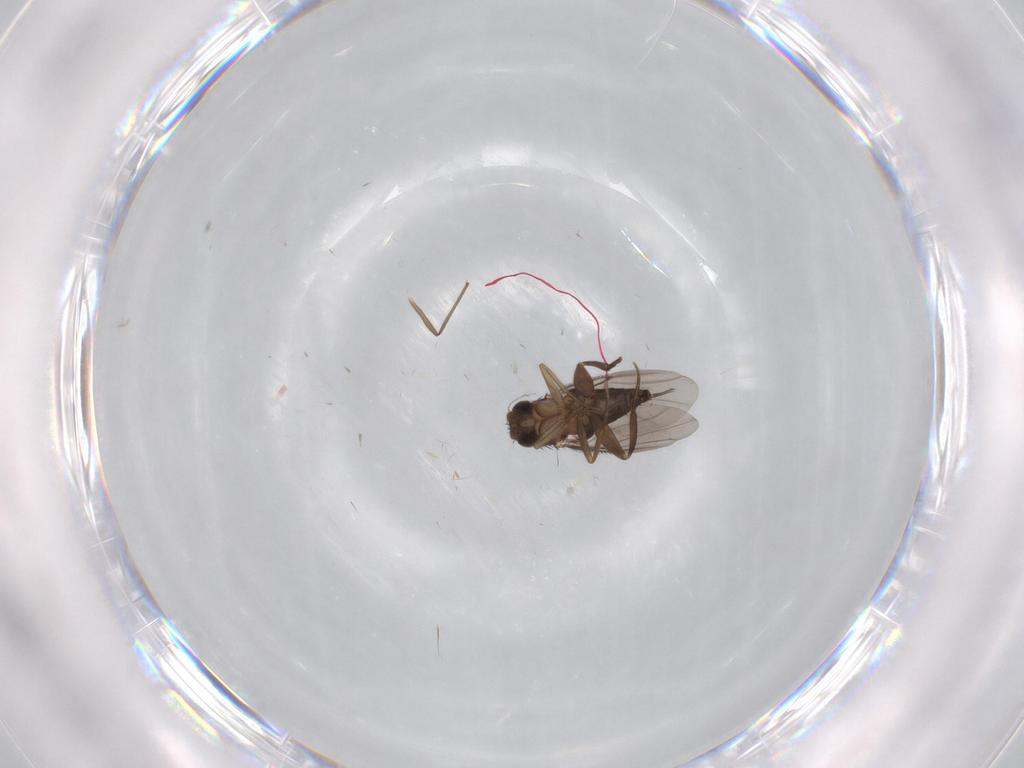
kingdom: Animalia
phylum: Arthropoda
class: Insecta
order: Diptera
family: Phoridae
